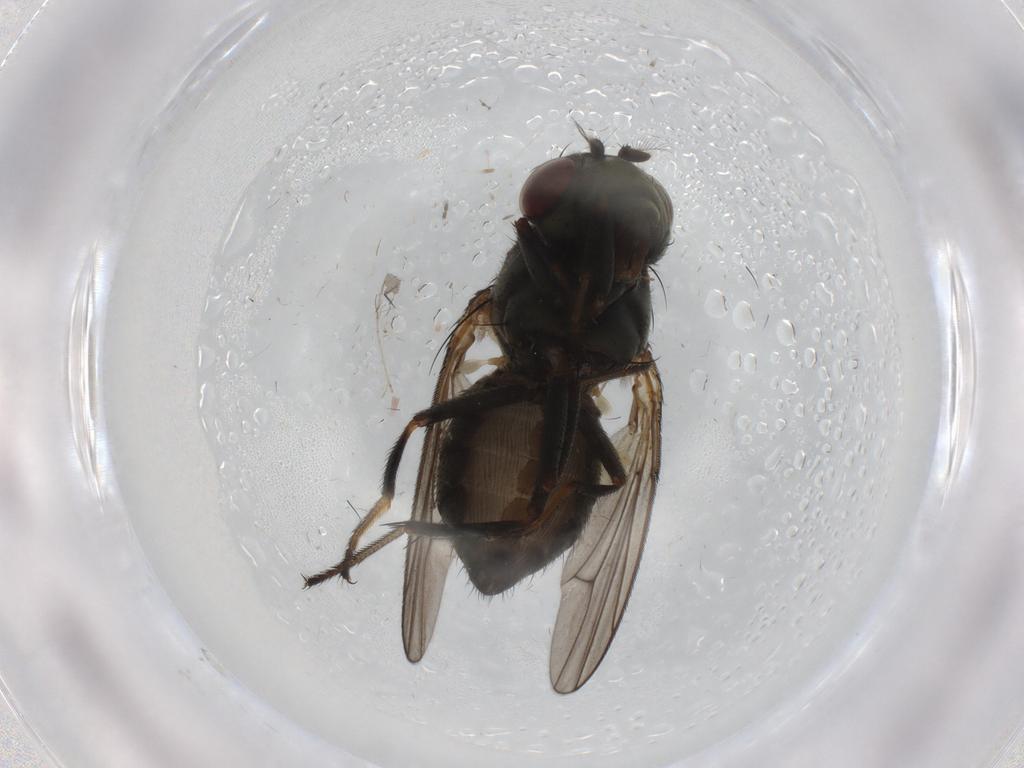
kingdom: Animalia
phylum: Arthropoda
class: Insecta
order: Diptera
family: Ephydridae
